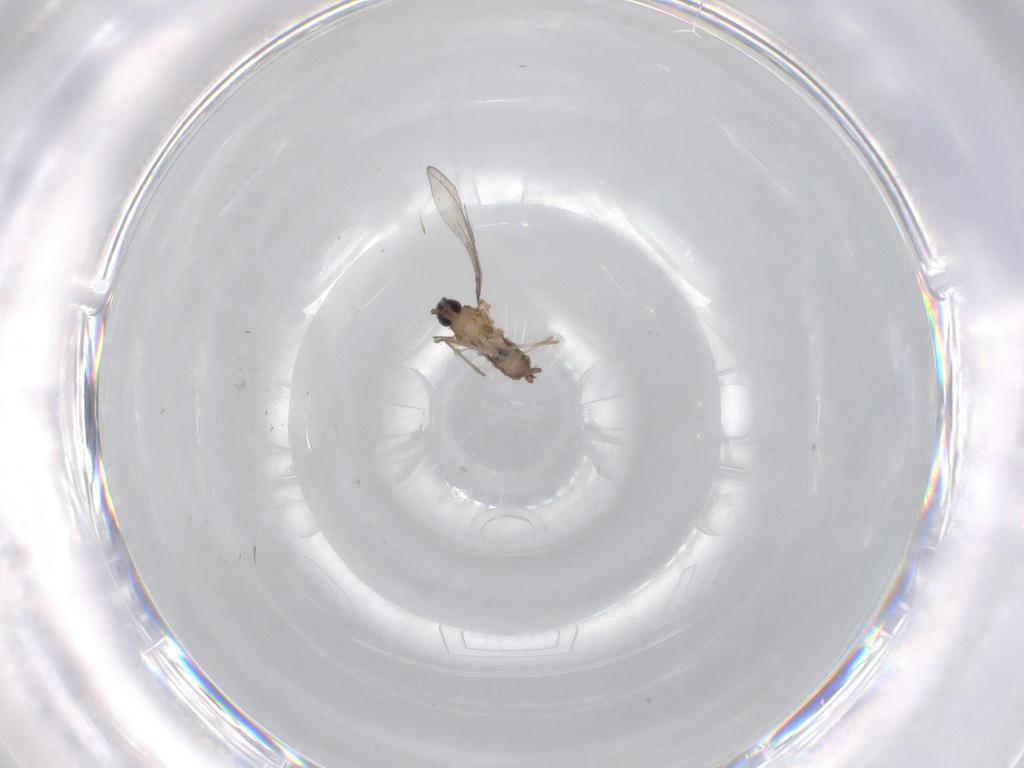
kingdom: Animalia
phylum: Arthropoda
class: Insecta
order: Diptera
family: Cecidomyiidae
